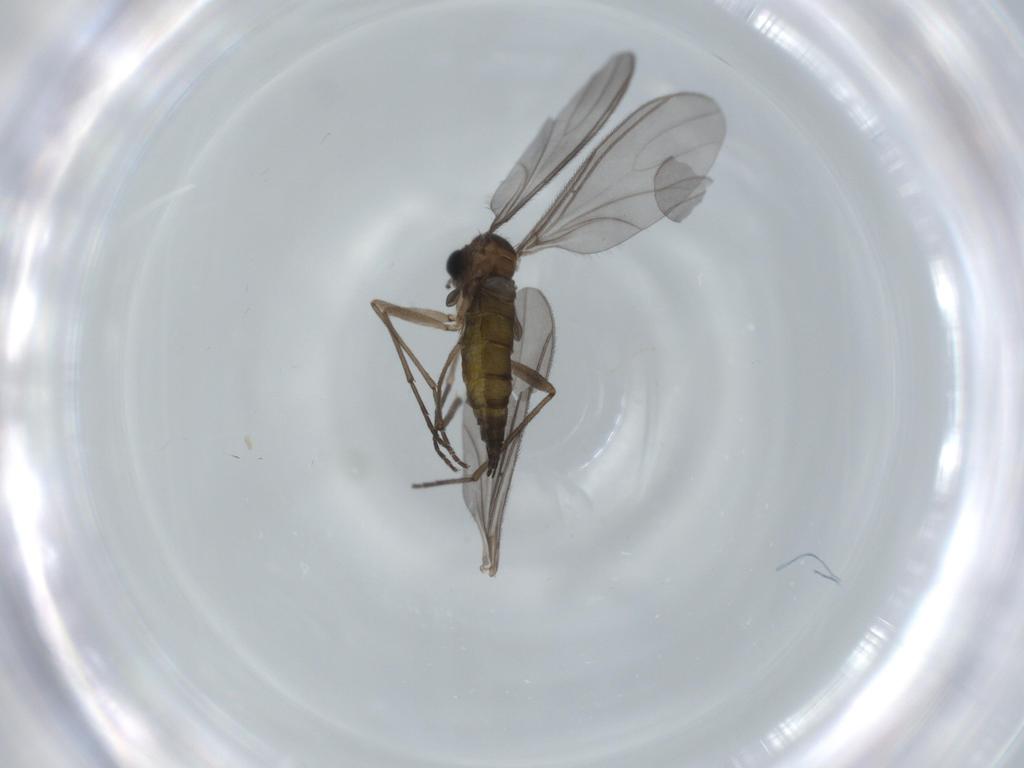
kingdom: Animalia
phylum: Arthropoda
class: Insecta
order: Diptera
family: Sciaridae
